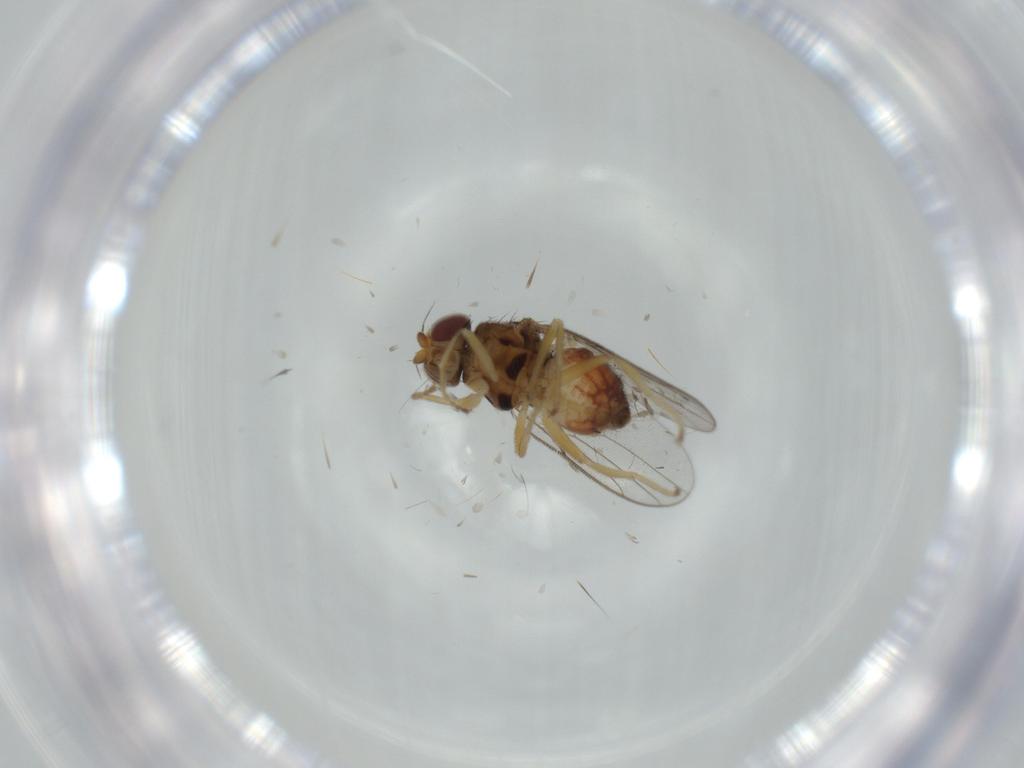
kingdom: Animalia
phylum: Arthropoda
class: Insecta
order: Diptera
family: Chloropidae
